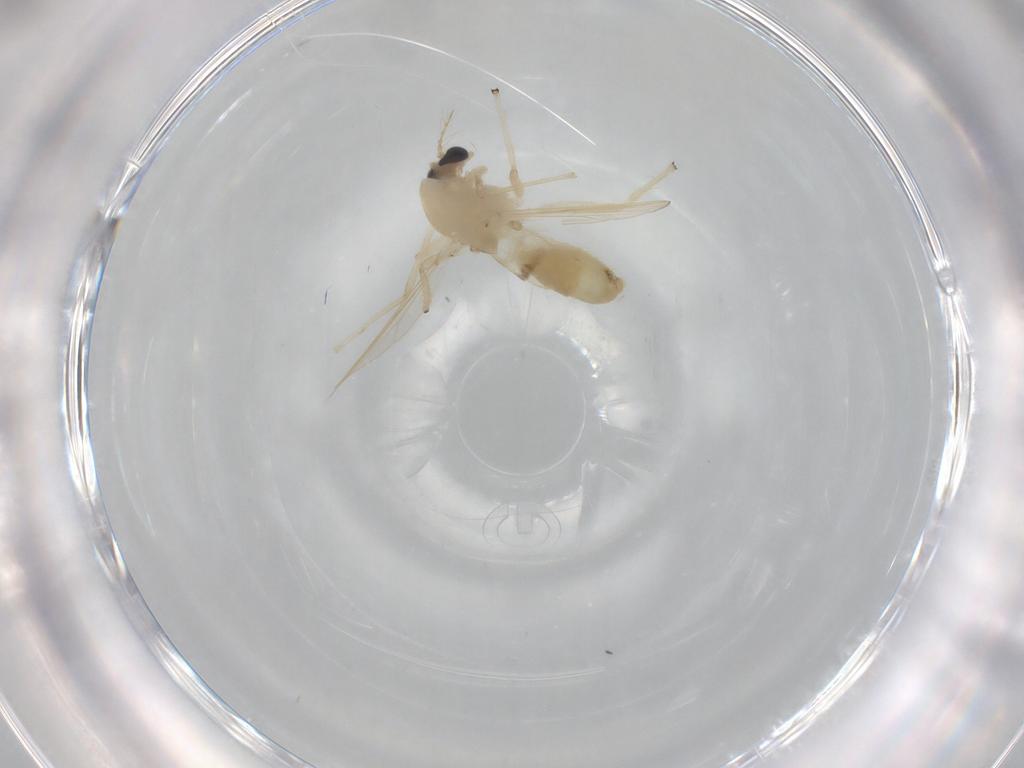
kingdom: Animalia
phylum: Arthropoda
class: Insecta
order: Diptera
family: Chironomidae
